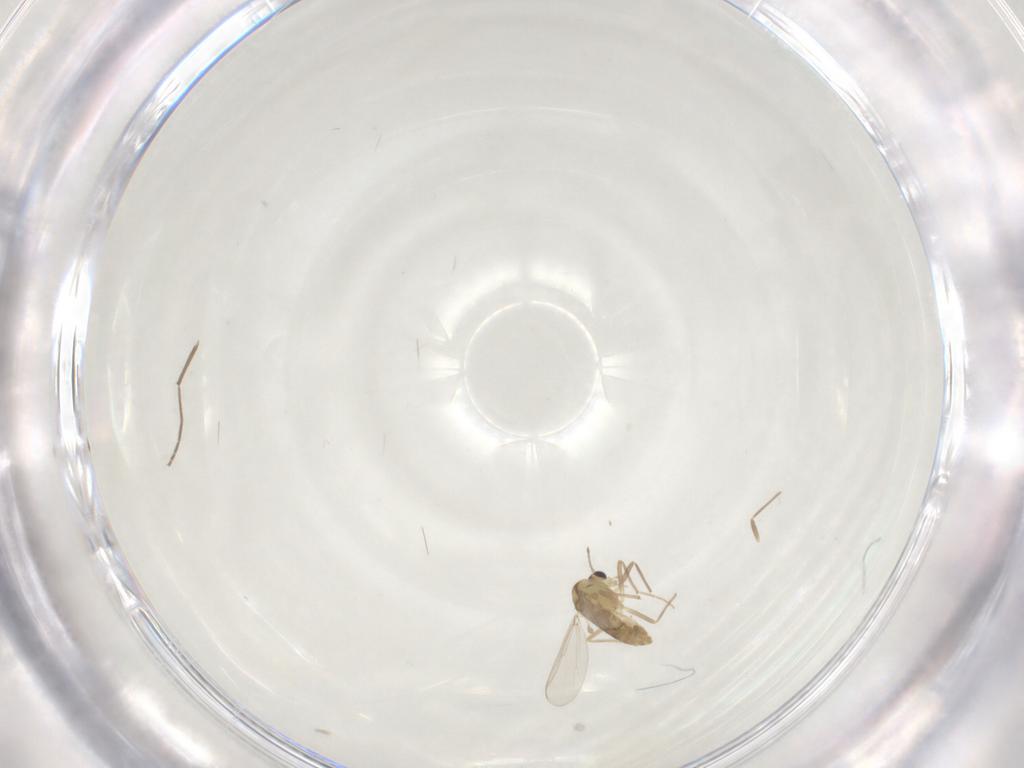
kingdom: Animalia
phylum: Arthropoda
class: Insecta
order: Diptera
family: Chironomidae
